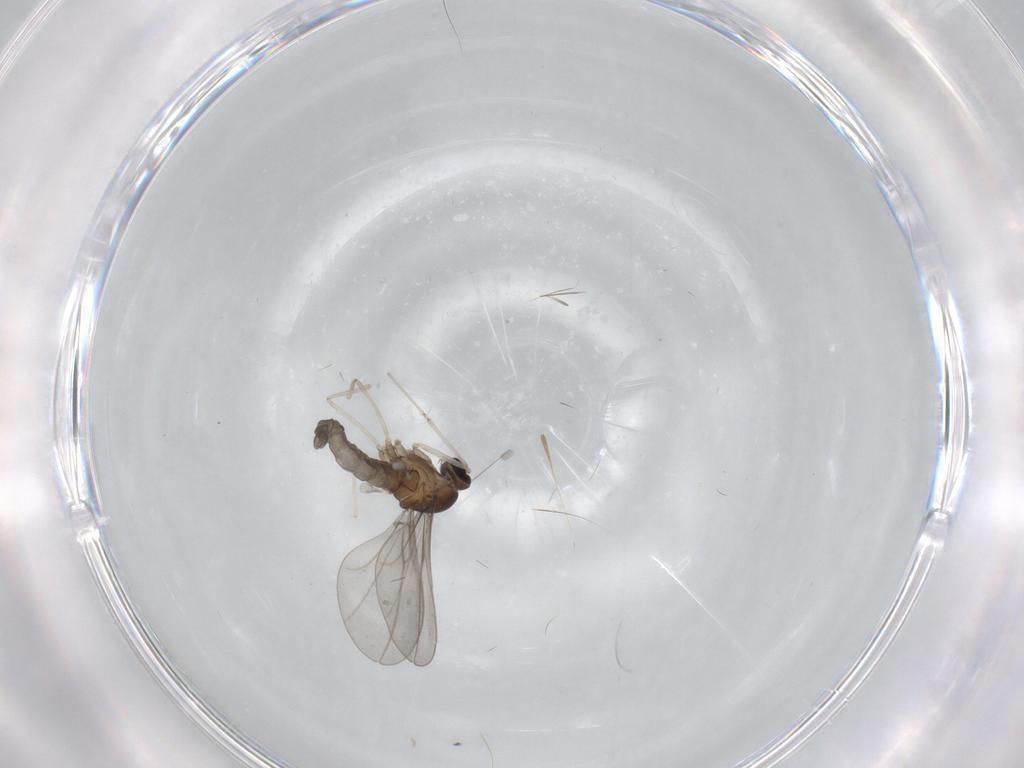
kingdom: Animalia
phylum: Arthropoda
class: Insecta
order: Diptera
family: Cecidomyiidae
